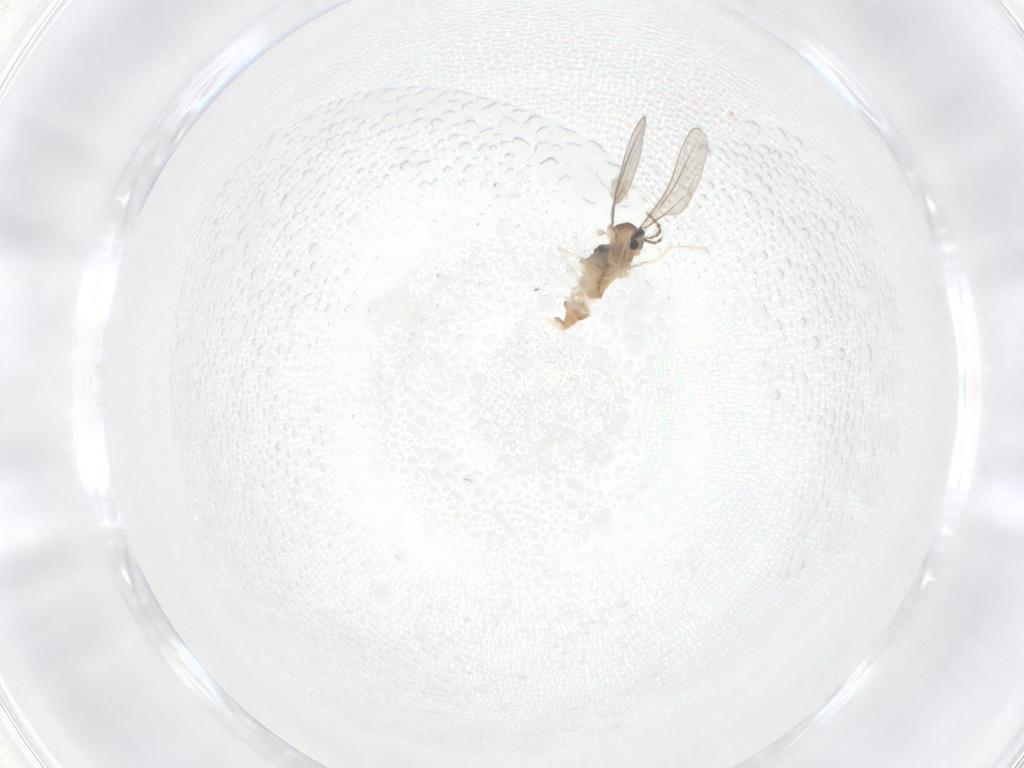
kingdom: Animalia
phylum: Arthropoda
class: Insecta
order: Diptera
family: Cecidomyiidae
